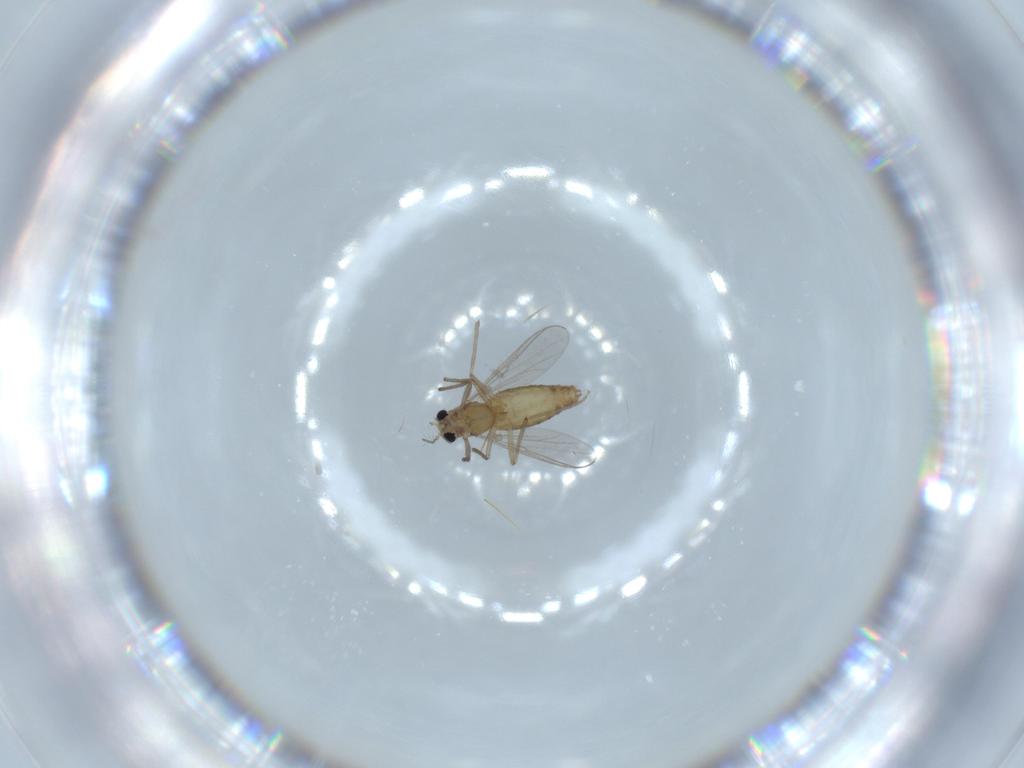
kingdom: Animalia
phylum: Arthropoda
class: Insecta
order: Diptera
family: Chironomidae
